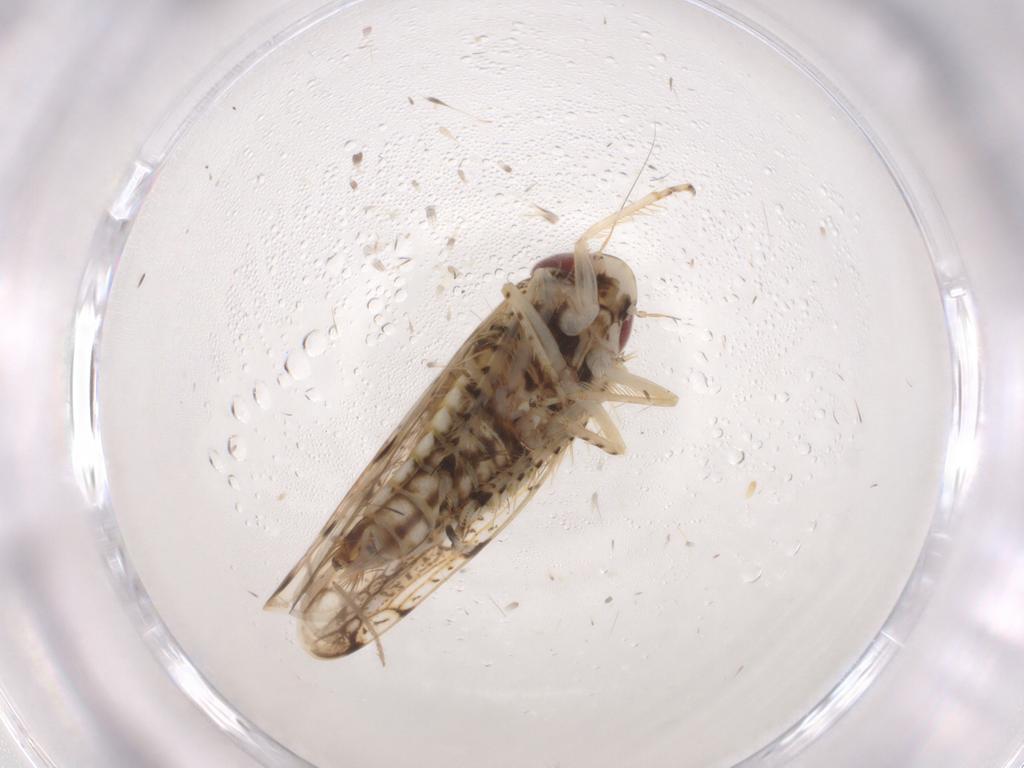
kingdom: Animalia
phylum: Arthropoda
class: Insecta
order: Hemiptera
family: Cicadellidae
